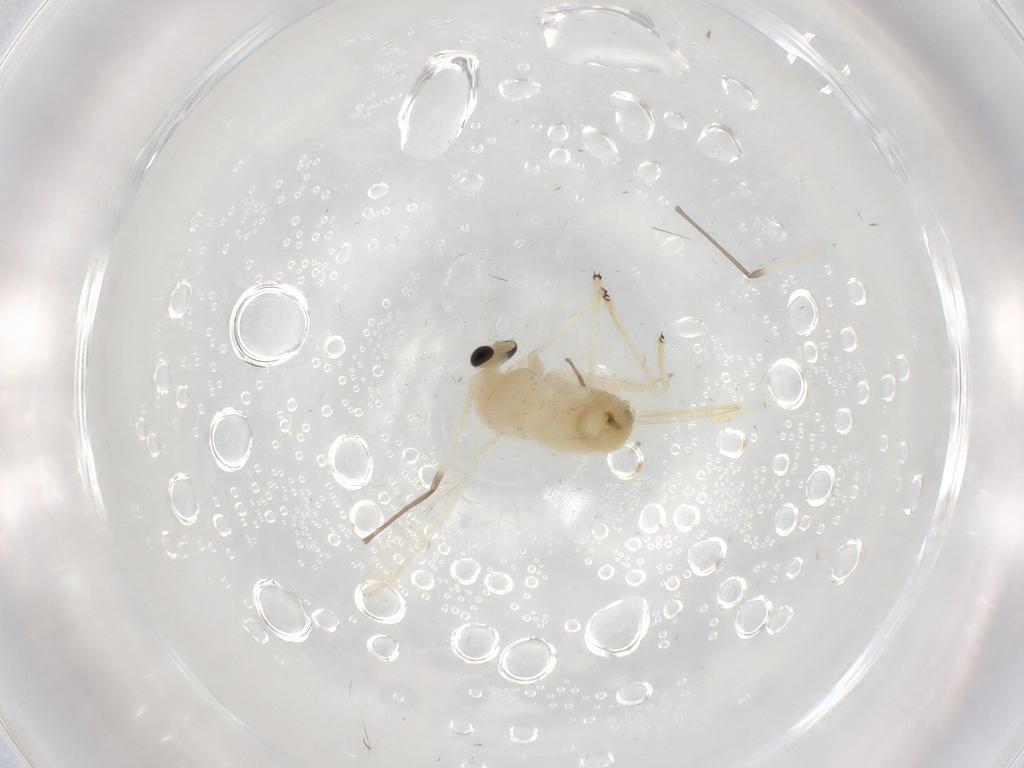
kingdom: Animalia
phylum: Arthropoda
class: Insecta
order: Diptera
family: Chironomidae
